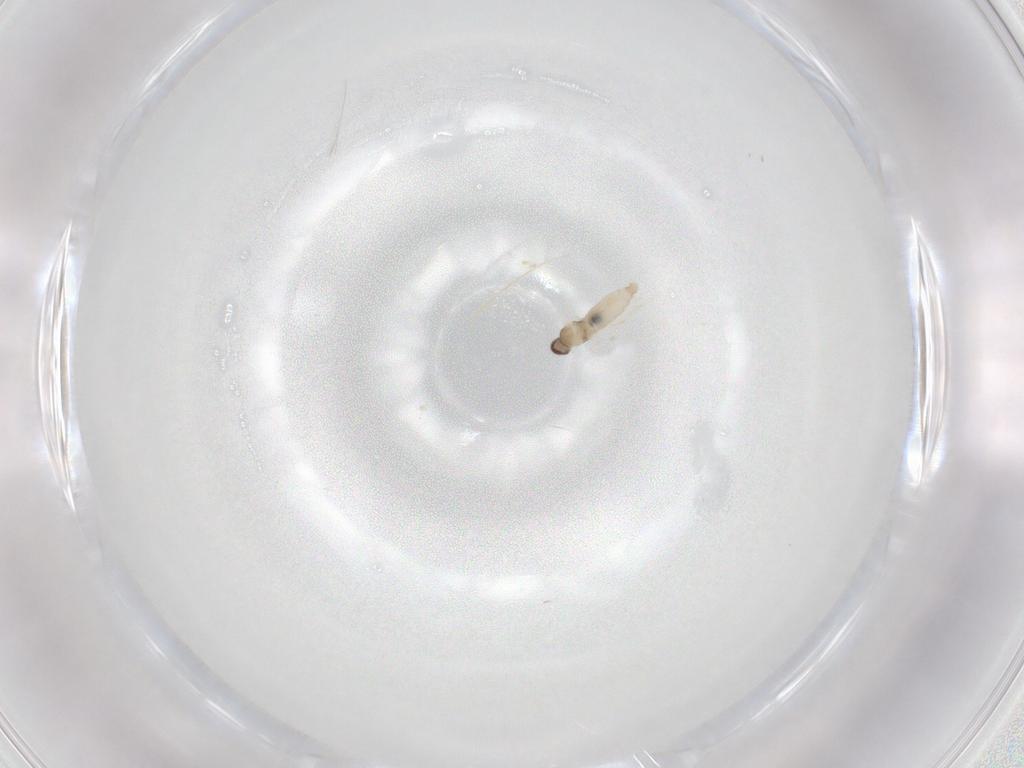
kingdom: Animalia
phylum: Arthropoda
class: Insecta
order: Diptera
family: Cecidomyiidae
